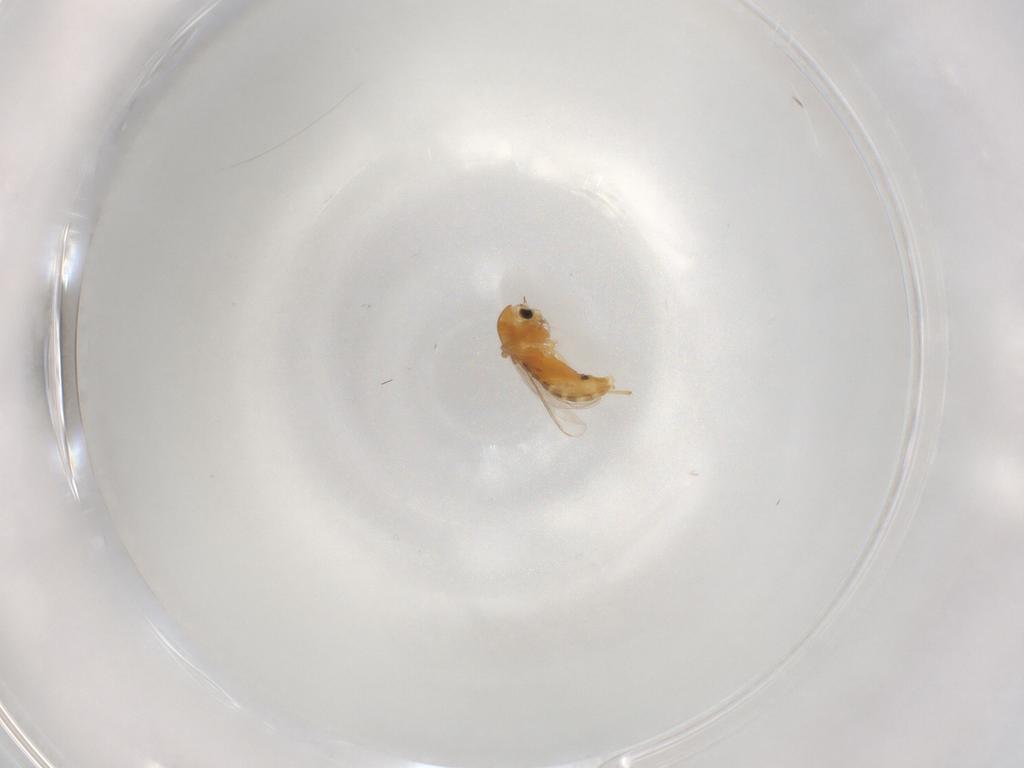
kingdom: Animalia
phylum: Arthropoda
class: Insecta
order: Diptera
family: Chironomidae
